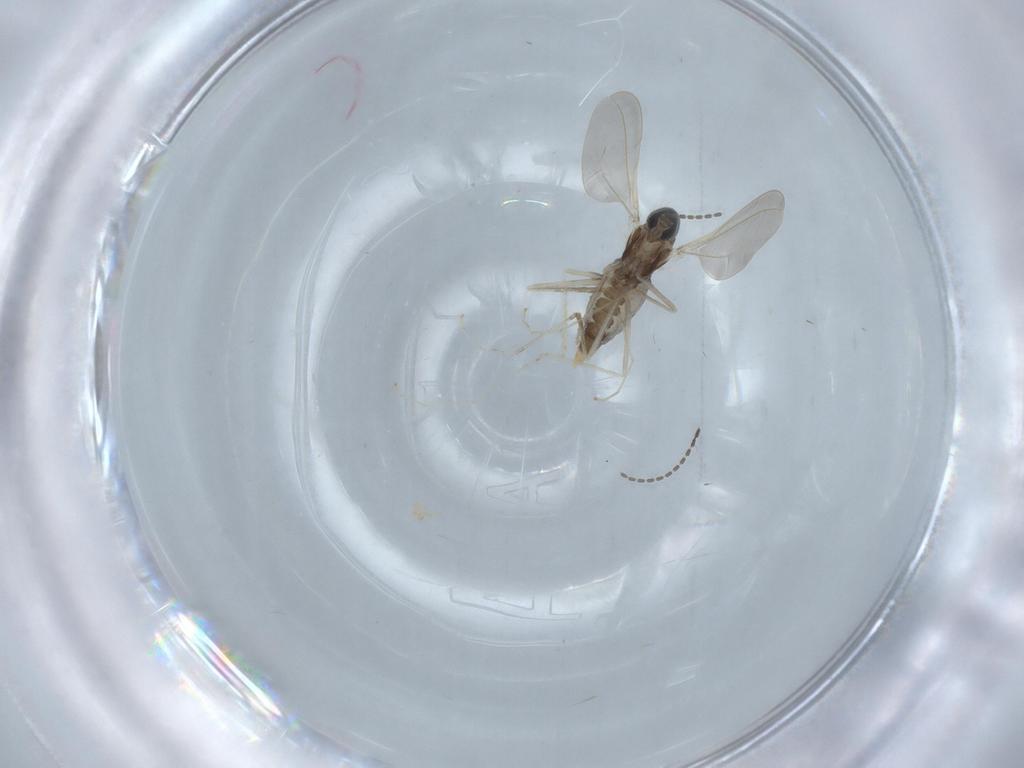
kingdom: Animalia
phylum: Arthropoda
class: Insecta
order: Diptera
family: Cecidomyiidae
